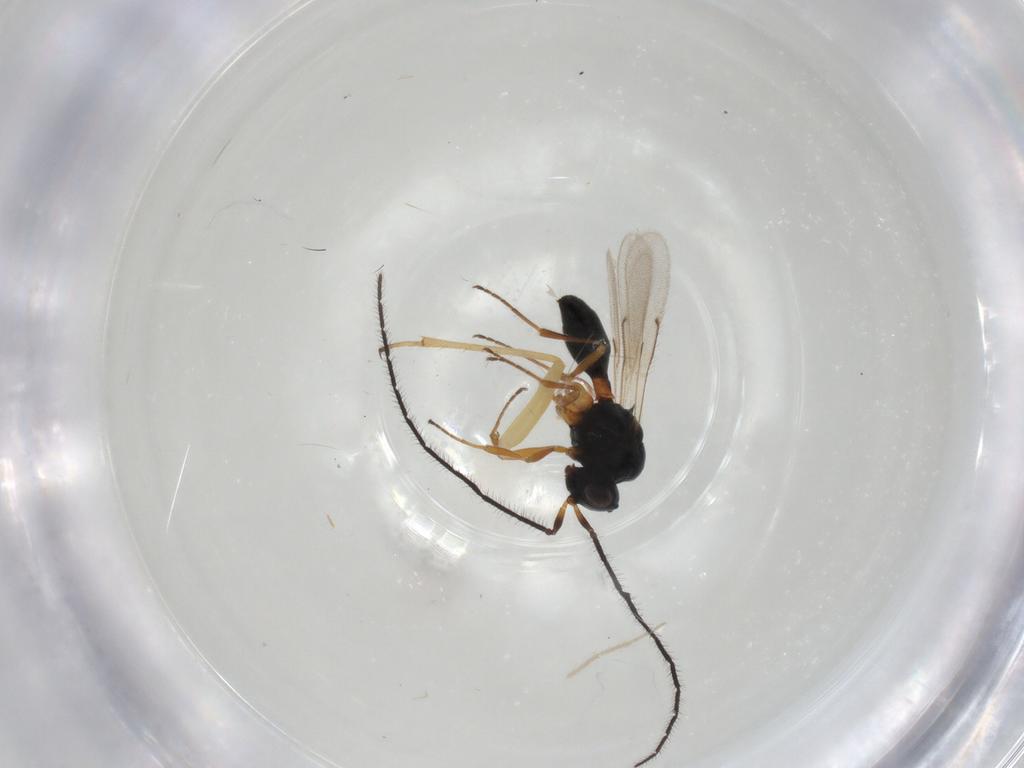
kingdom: Animalia
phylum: Arthropoda
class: Insecta
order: Hymenoptera
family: Scelionidae
